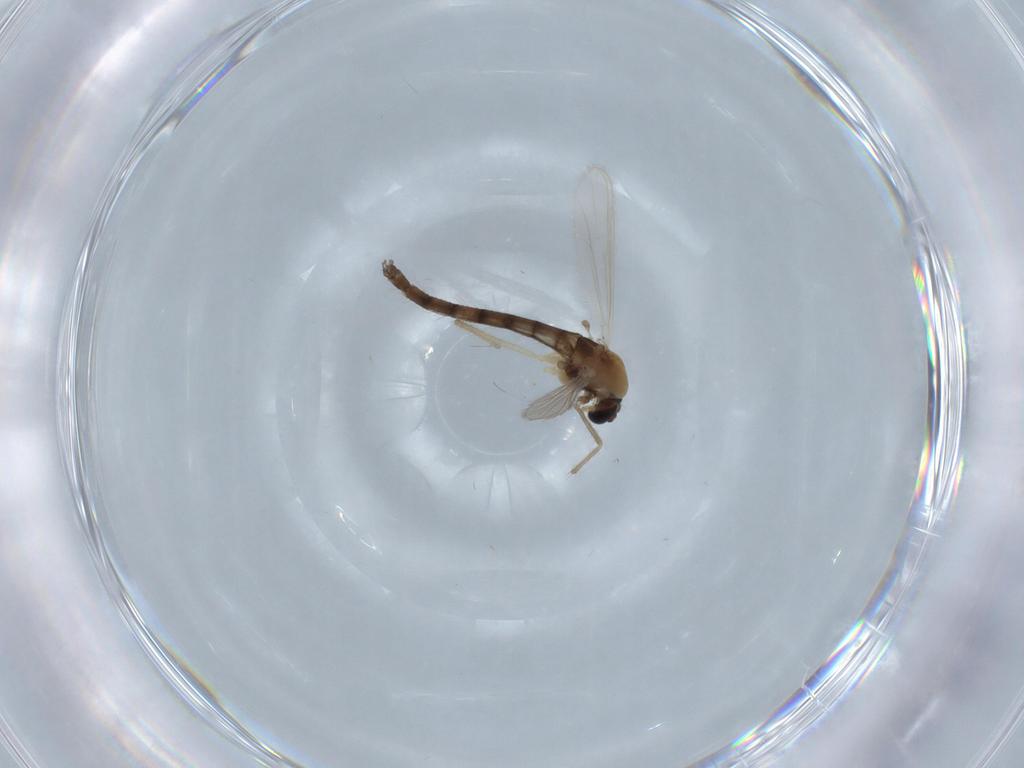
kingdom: Animalia
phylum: Arthropoda
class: Insecta
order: Diptera
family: Chironomidae
